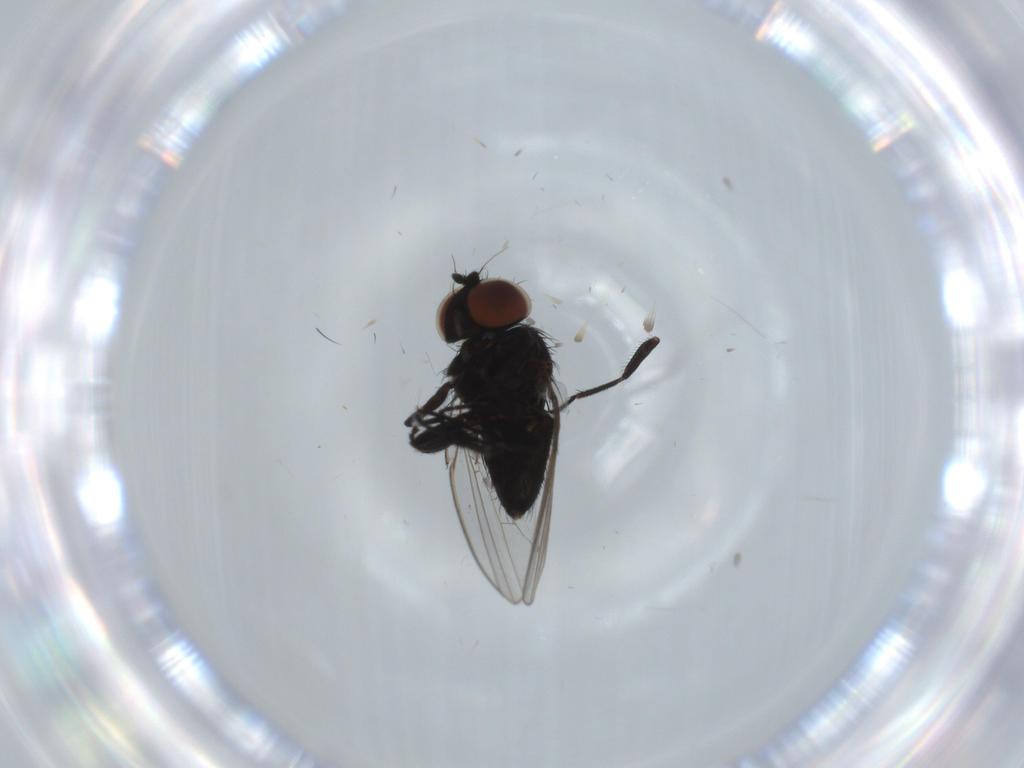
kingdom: Animalia
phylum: Arthropoda
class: Insecta
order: Diptera
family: Milichiidae
